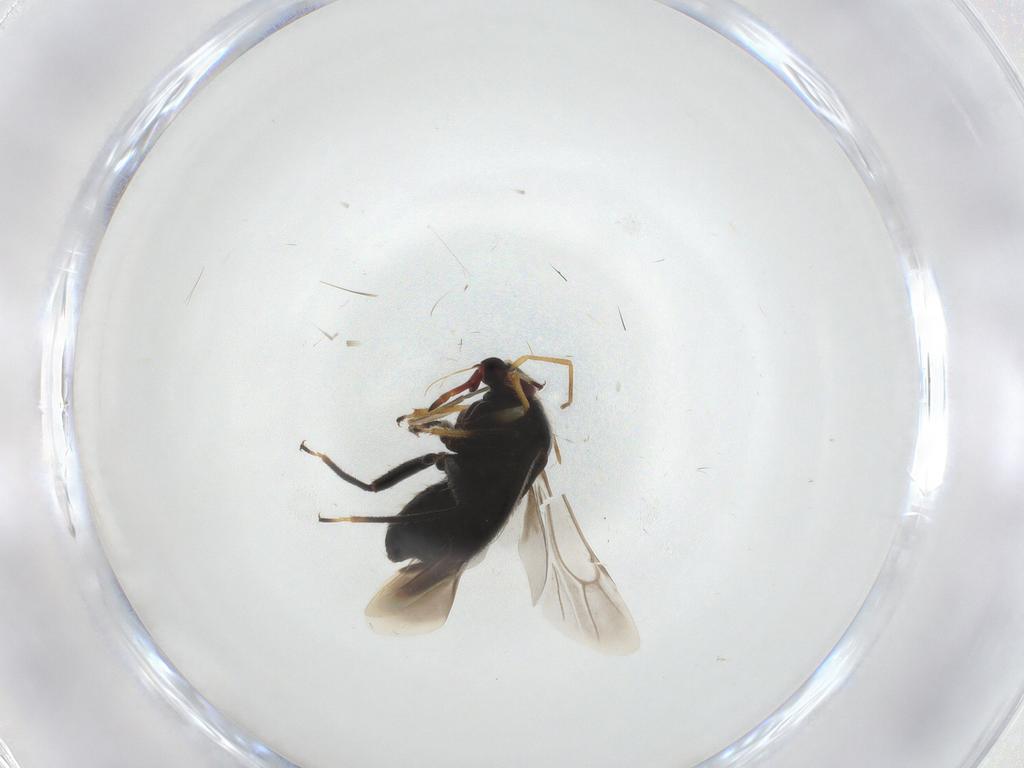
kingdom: Animalia
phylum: Arthropoda
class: Insecta
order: Hemiptera
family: Miridae
